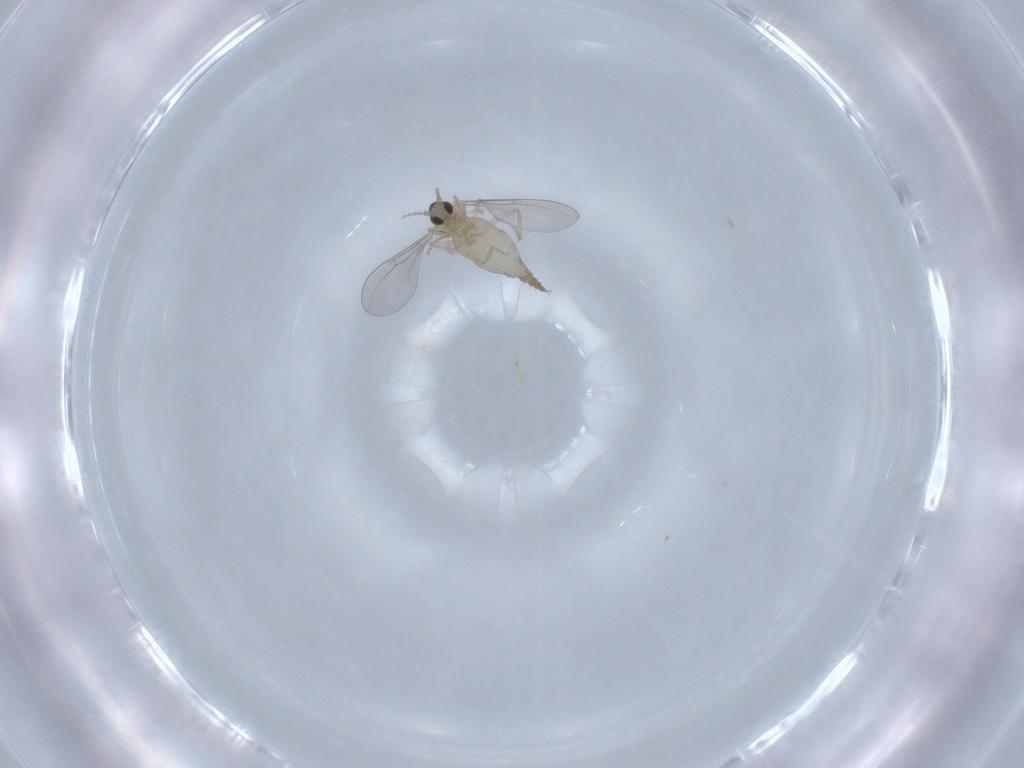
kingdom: Animalia
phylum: Arthropoda
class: Insecta
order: Diptera
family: Cecidomyiidae
